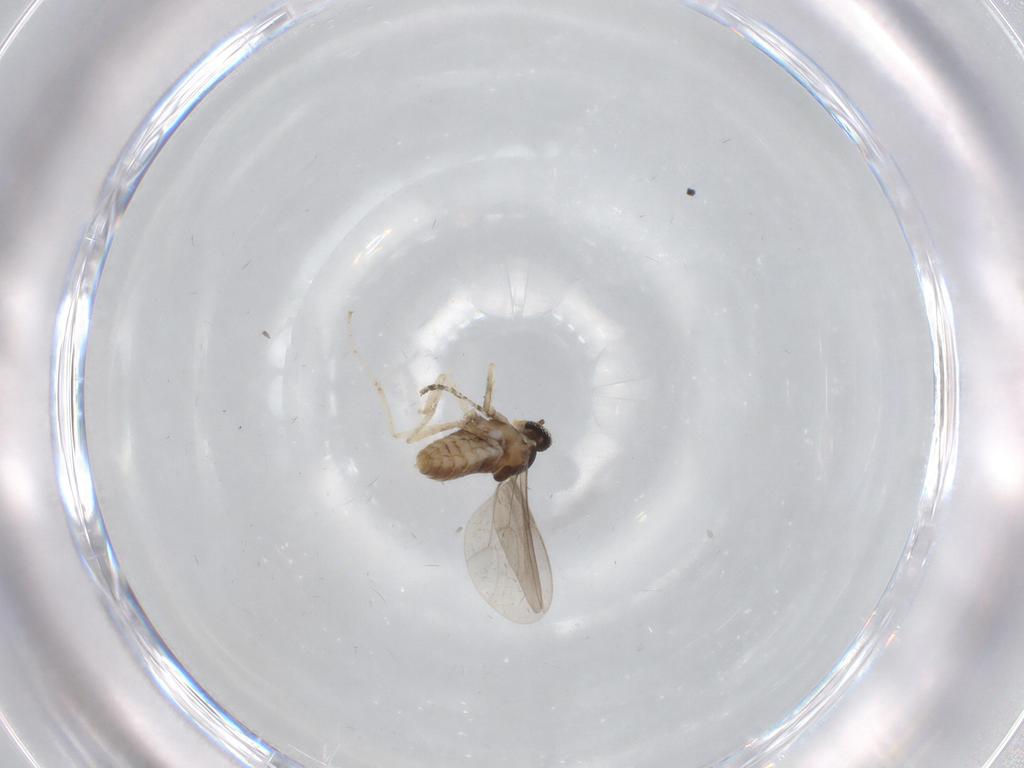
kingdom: Animalia
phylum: Arthropoda
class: Insecta
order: Diptera
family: Cecidomyiidae
